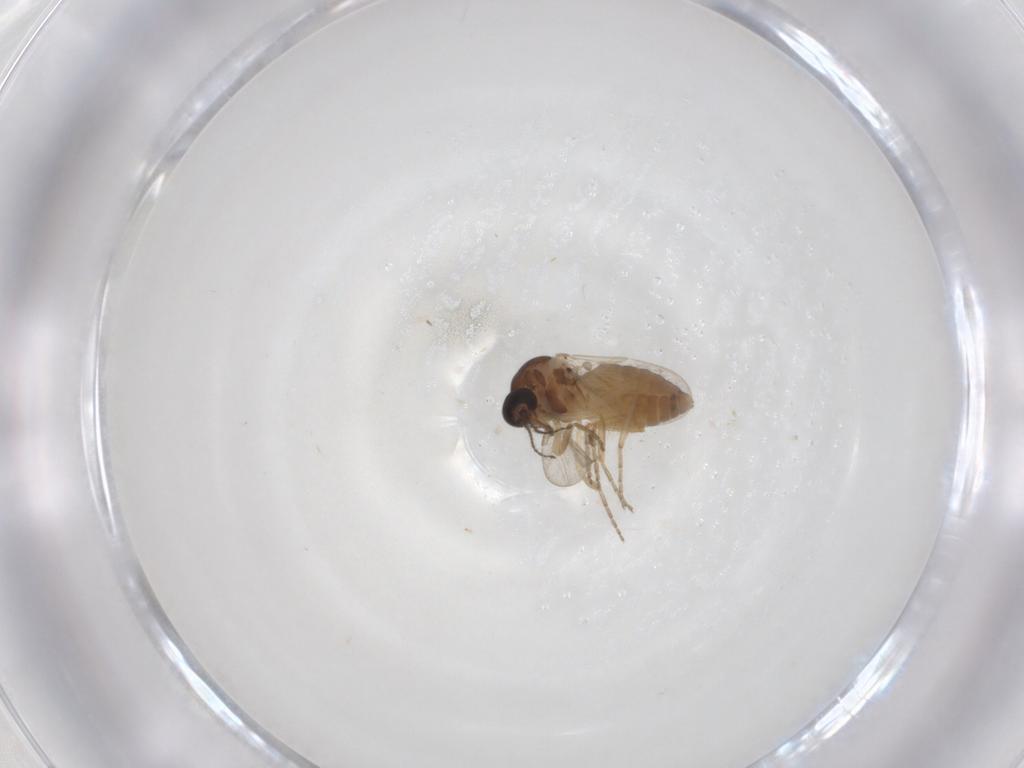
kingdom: Animalia
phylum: Arthropoda
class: Insecta
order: Diptera
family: Ceratopogonidae
